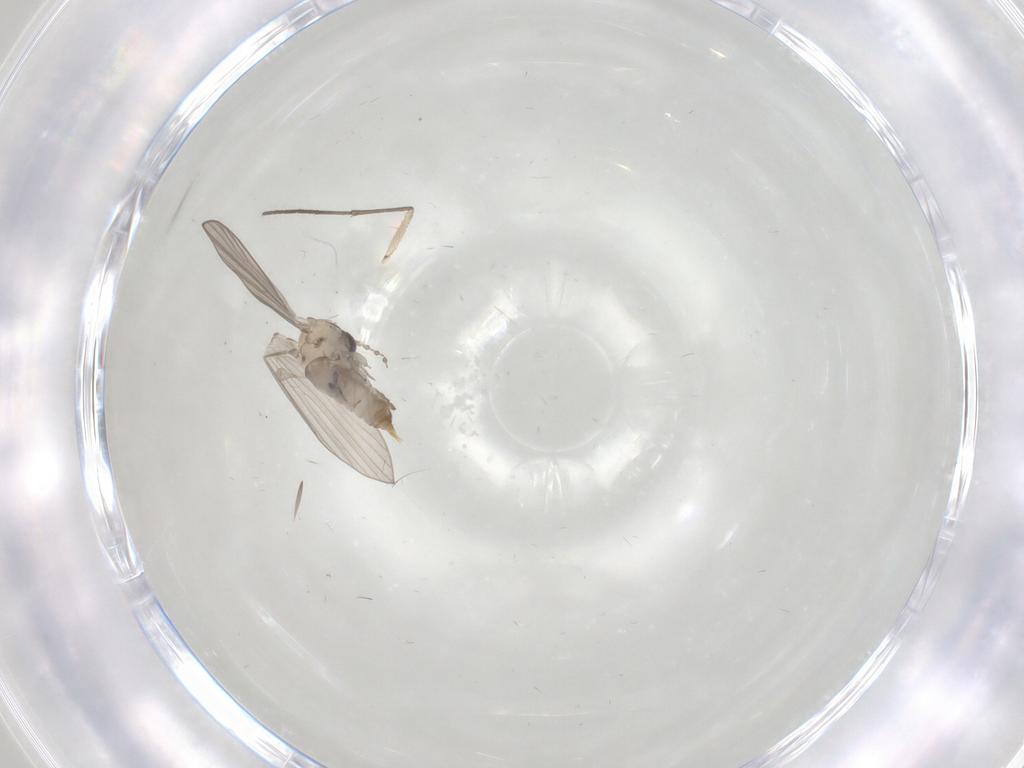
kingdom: Animalia
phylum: Arthropoda
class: Insecta
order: Diptera
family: Psychodidae
